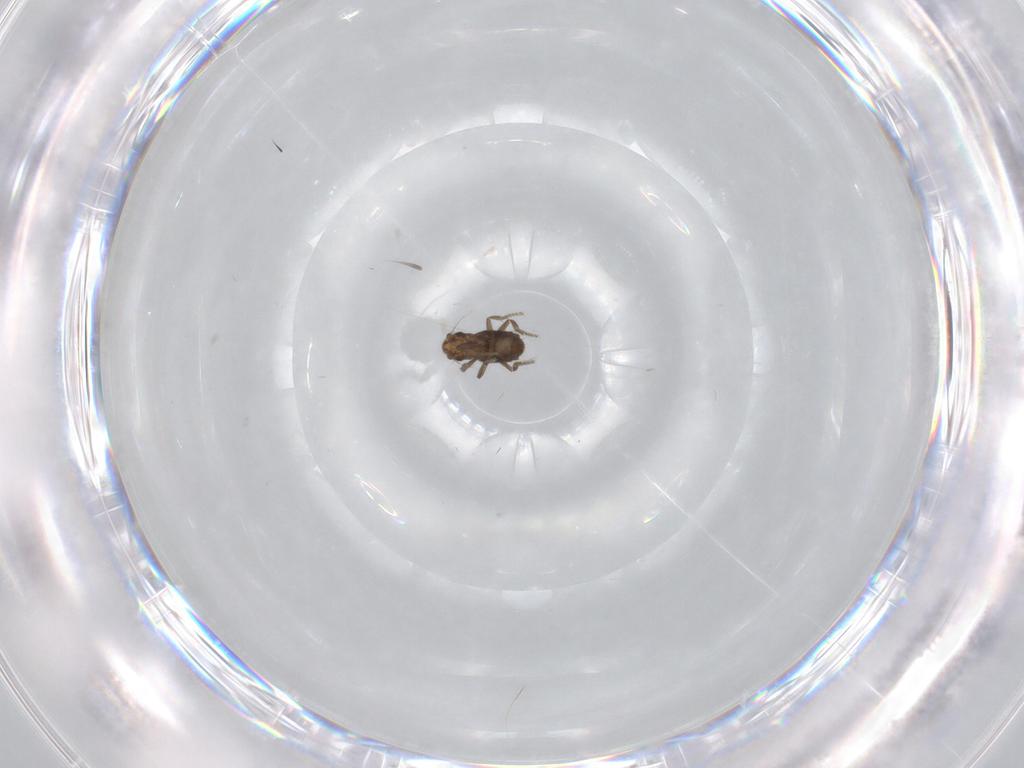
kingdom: Animalia
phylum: Arthropoda
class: Insecta
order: Diptera
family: Phoridae
